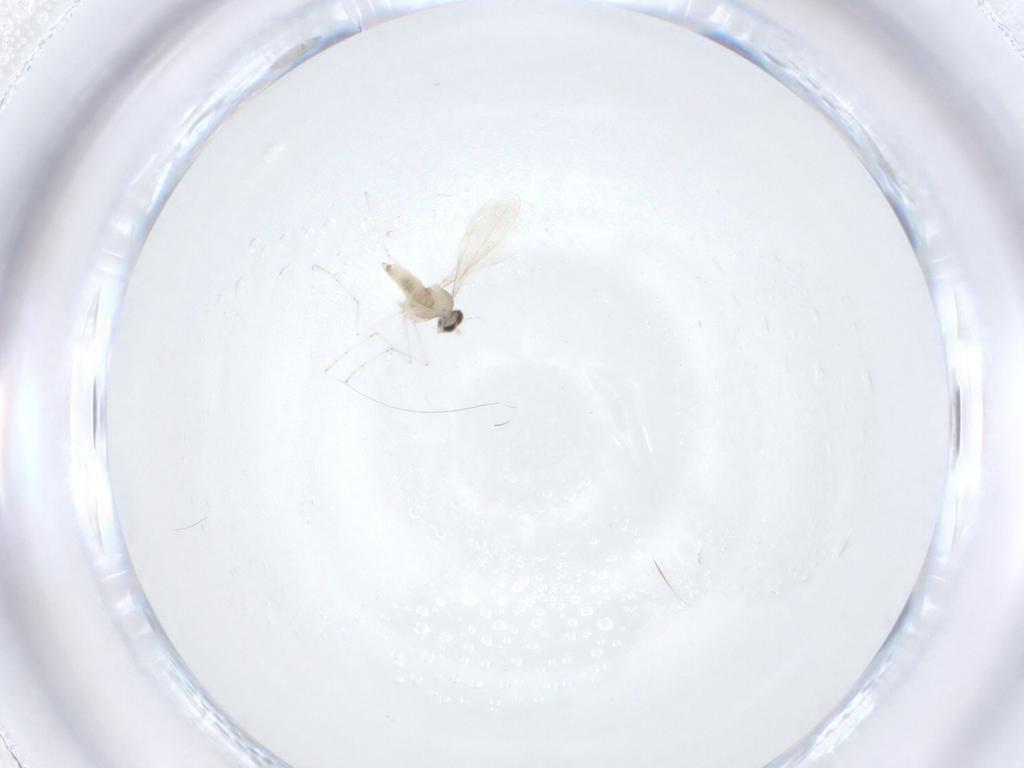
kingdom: Animalia
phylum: Arthropoda
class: Insecta
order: Diptera
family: Cecidomyiidae
